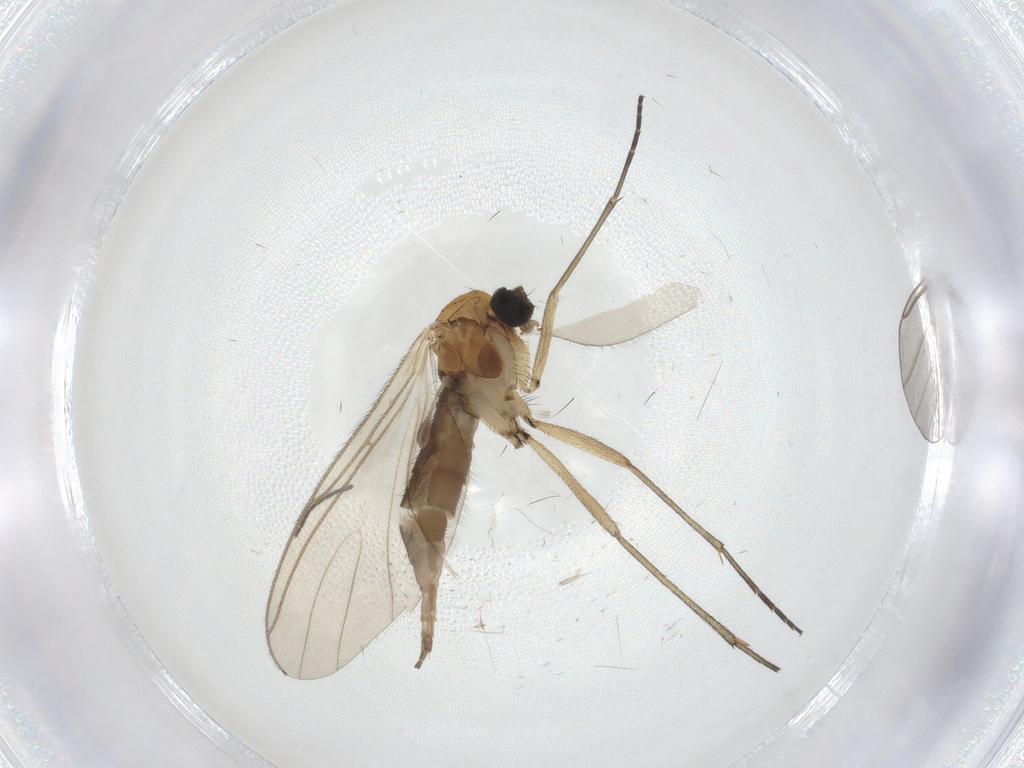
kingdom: Animalia
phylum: Arthropoda
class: Insecta
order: Diptera
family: Sciaridae
